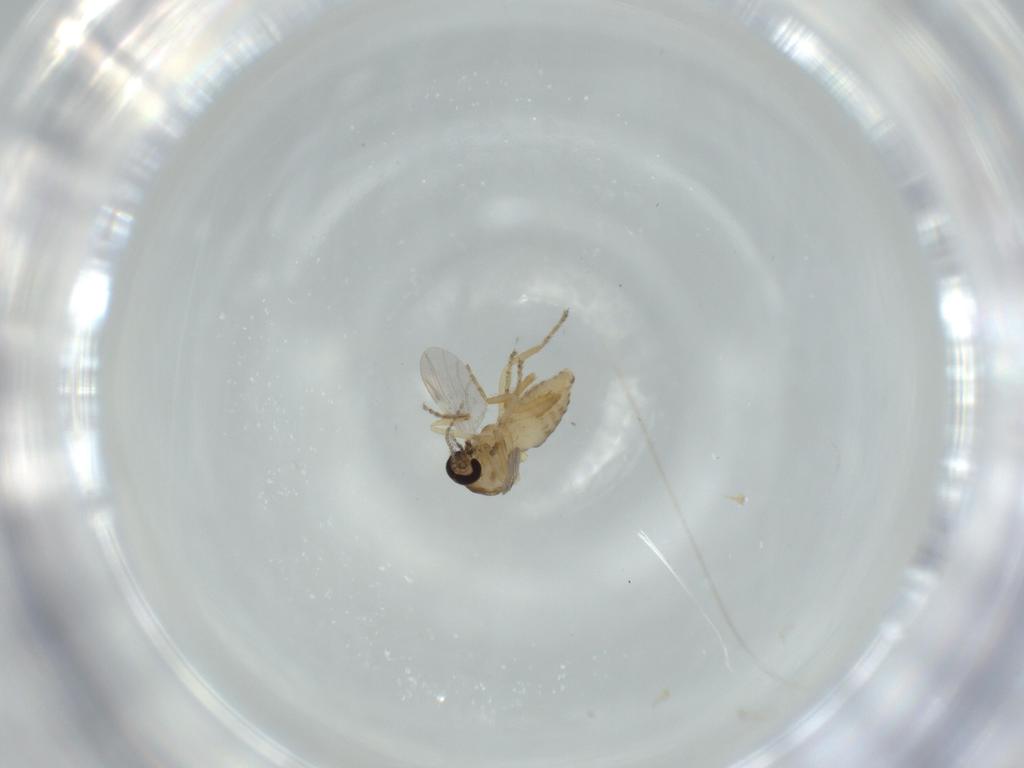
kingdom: Animalia
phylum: Arthropoda
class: Insecta
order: Diptera
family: Ceratopogonidae
